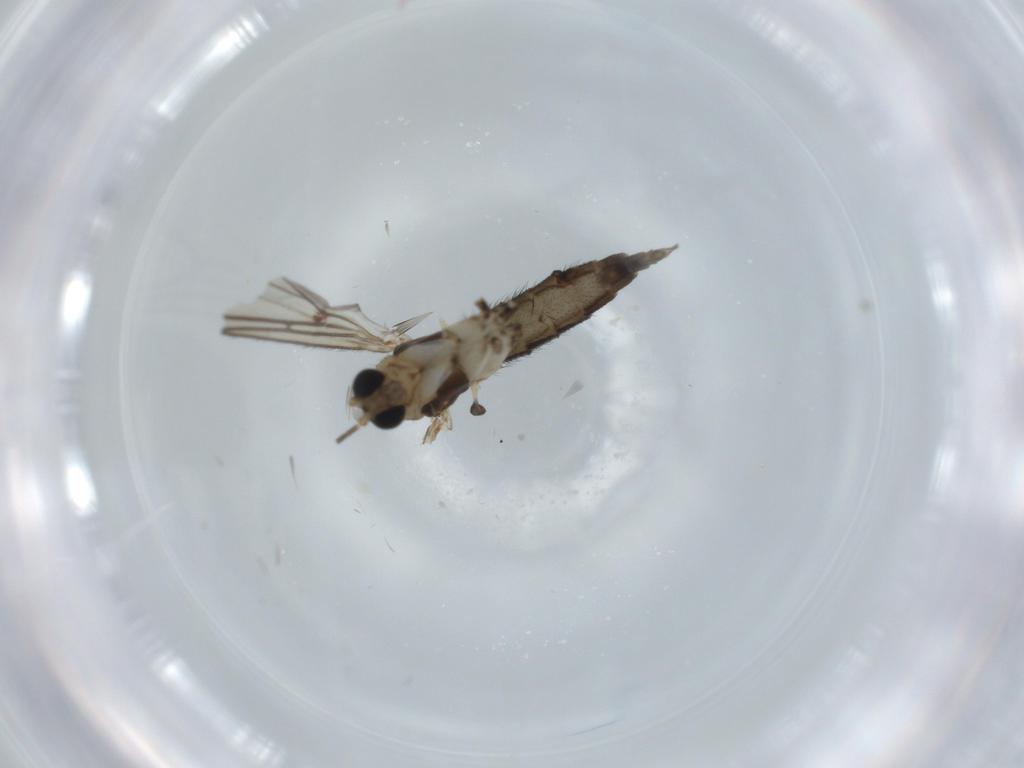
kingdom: Animalia
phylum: Arthropoda
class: Insecta
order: Diptera
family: Sciaridae
